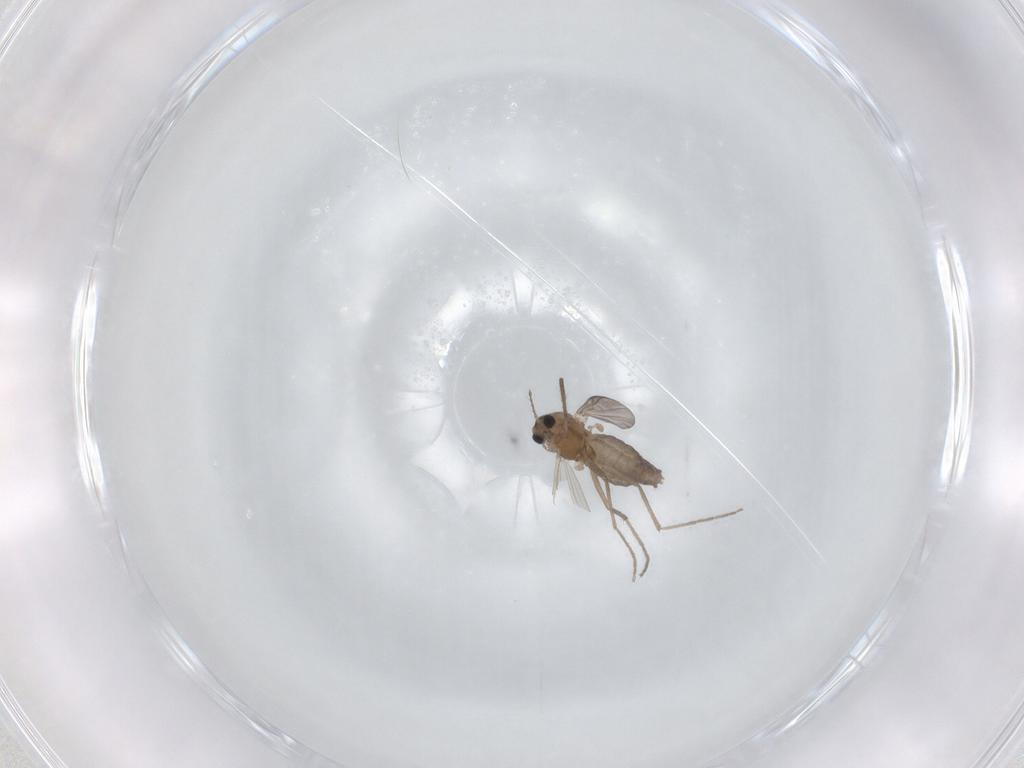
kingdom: Animalia
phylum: Arthropoda
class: Insecta
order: Diptera
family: Chironomidae
